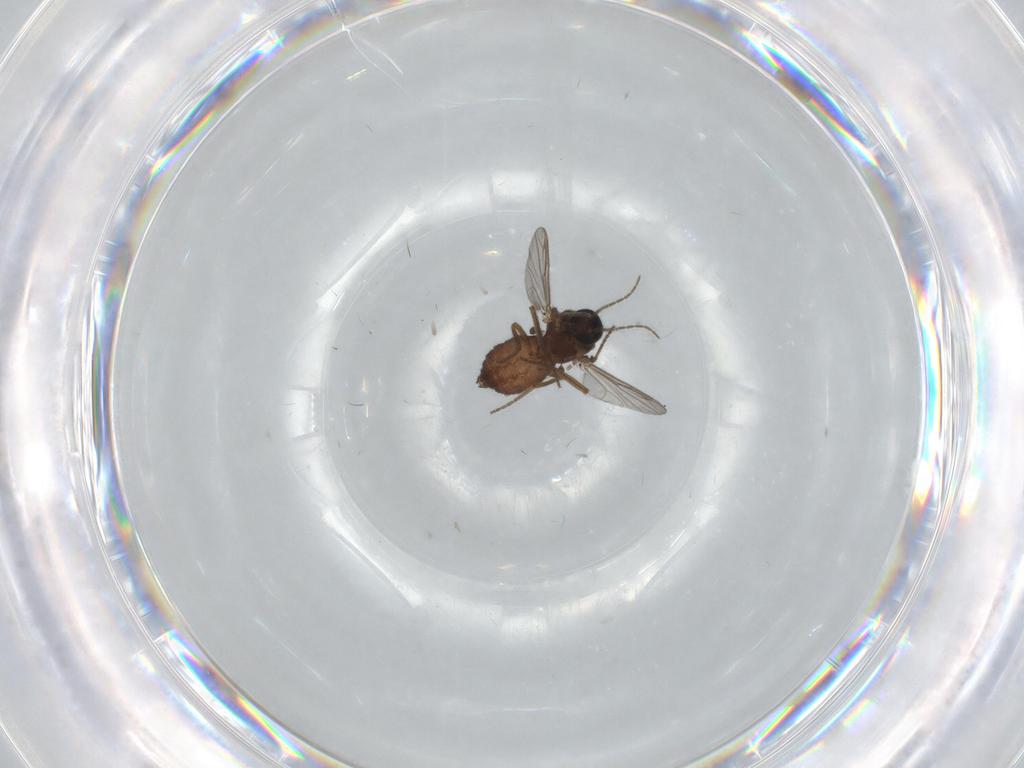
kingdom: Animalia
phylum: Arthropoda
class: Insecta
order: Diptera
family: Ceratopogonidae
